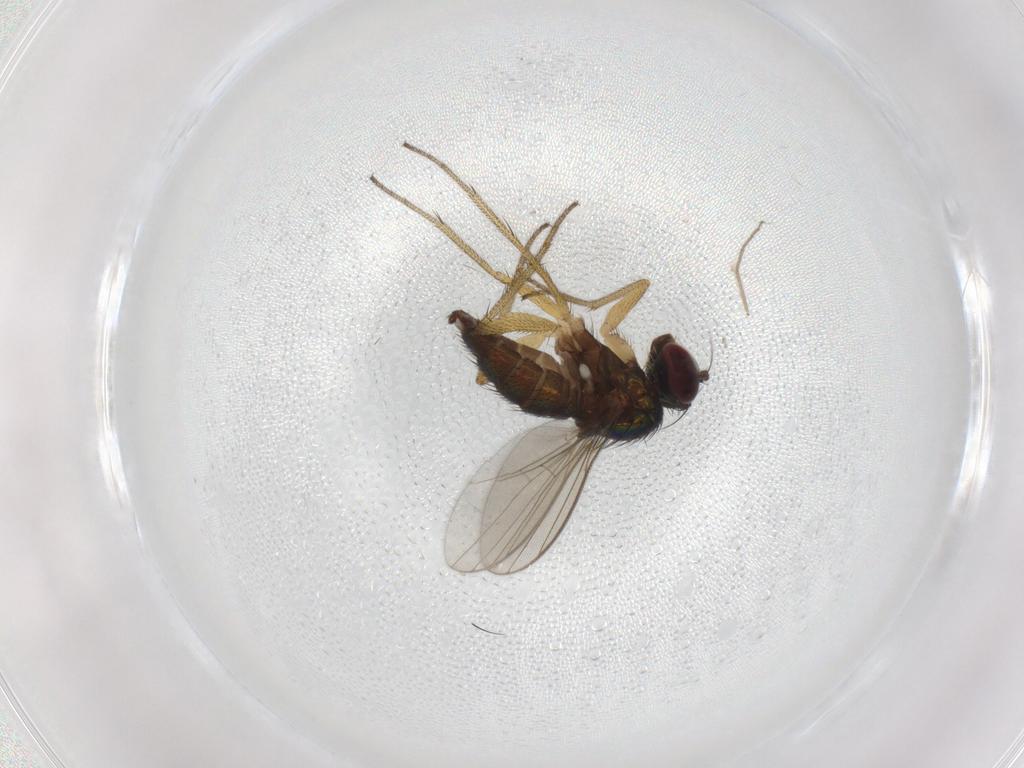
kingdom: Animalia
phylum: Arthropoda
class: Insecta
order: Diptera
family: Dolichopodidae
